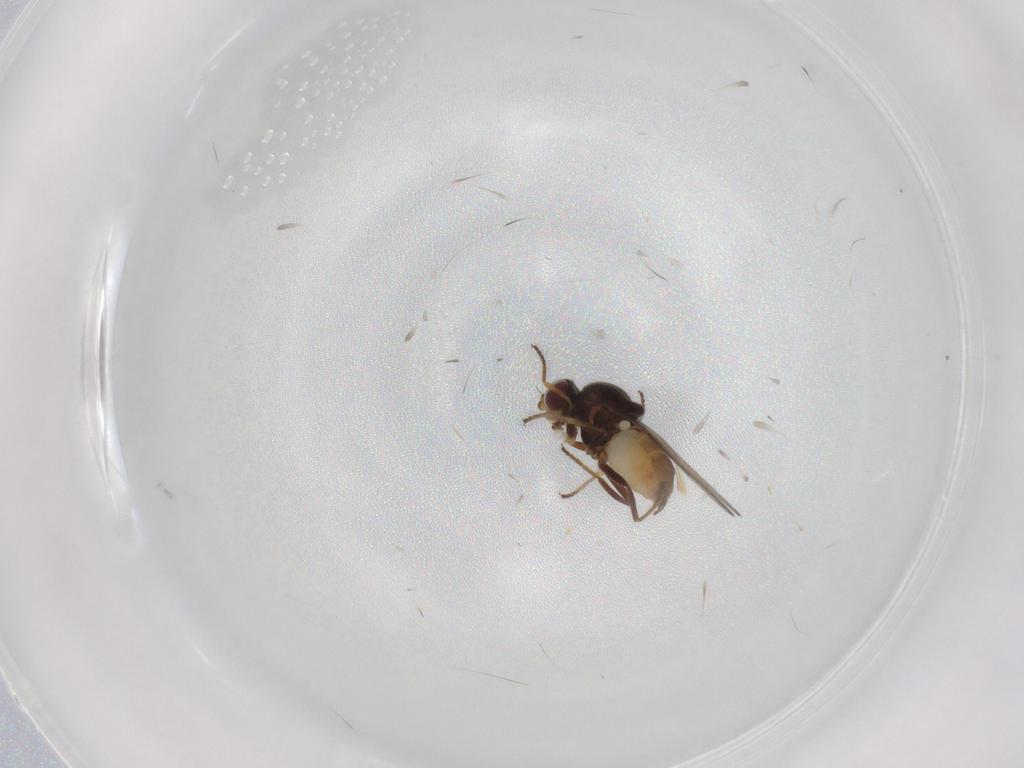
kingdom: Animalia
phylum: Arthropoda
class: Insecta
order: Diptera
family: Chloropidae
